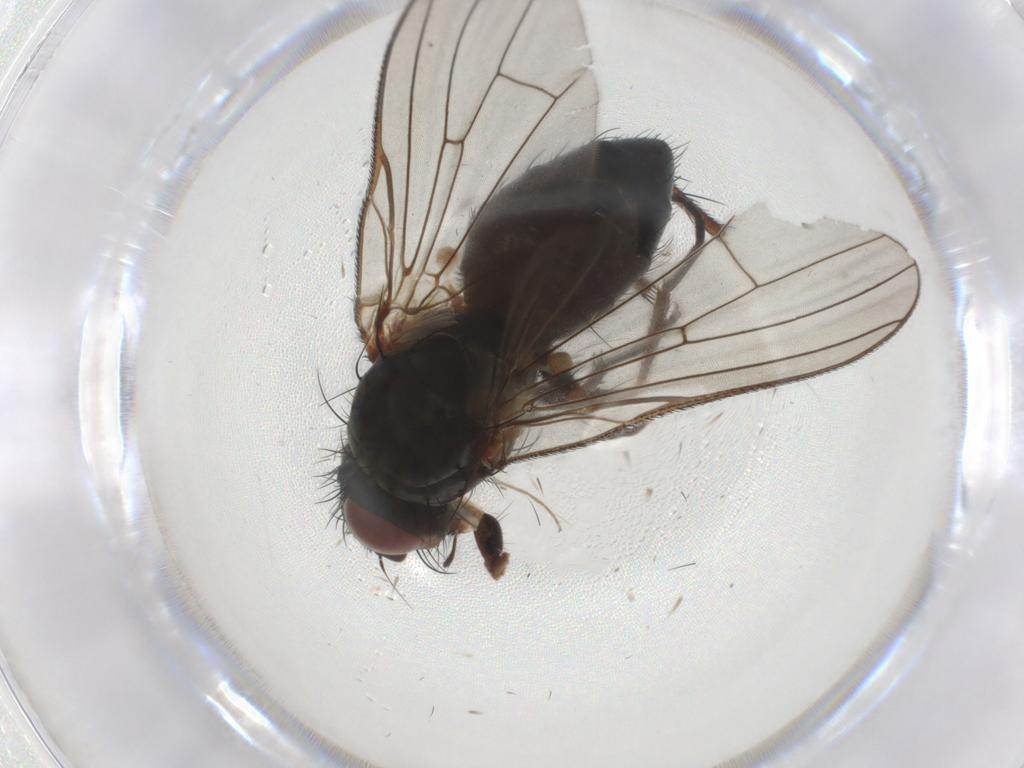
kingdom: Animalia
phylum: Arthropoda
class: Insecta
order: Diptera
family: Anthomyiidae
